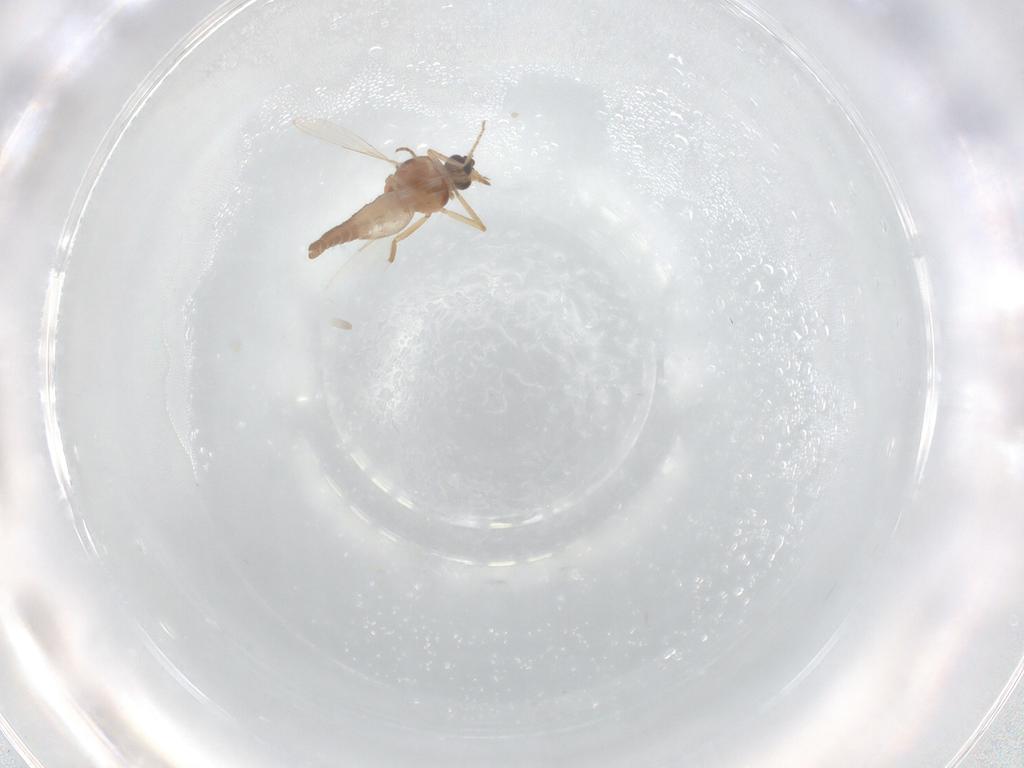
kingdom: Animalia
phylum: Arthropoda
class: Insecta
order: Diptera
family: Ceratopogonidae
